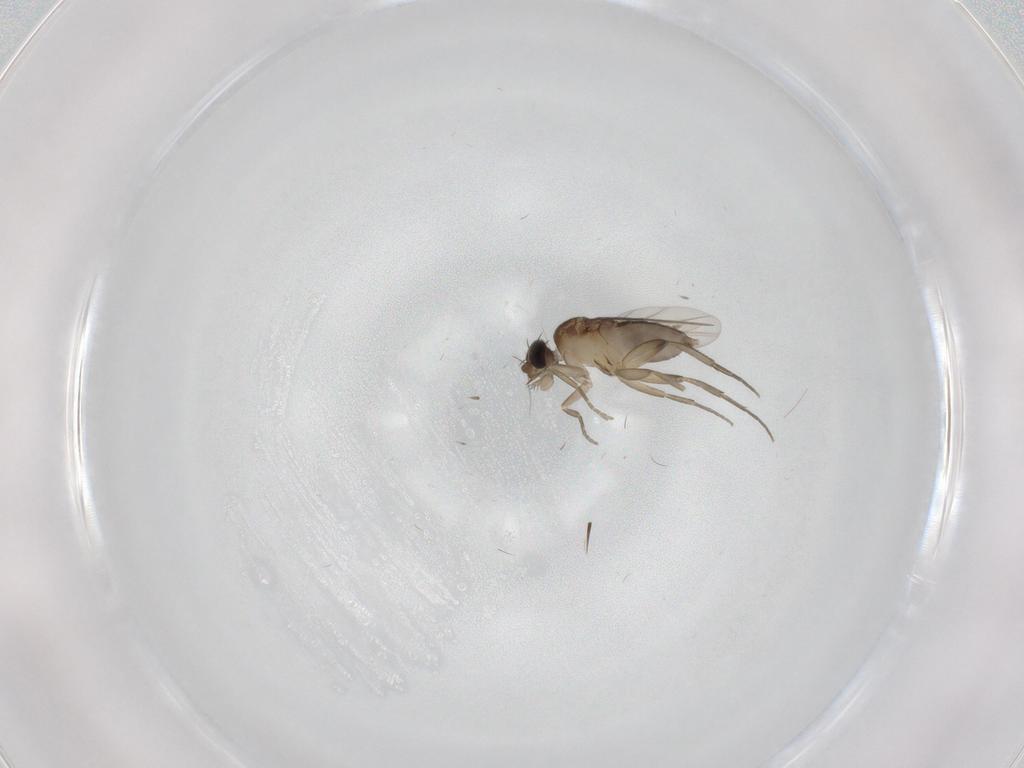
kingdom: Animalia
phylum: Arthropoda
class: Insecta
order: Diptera
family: Phoridae
